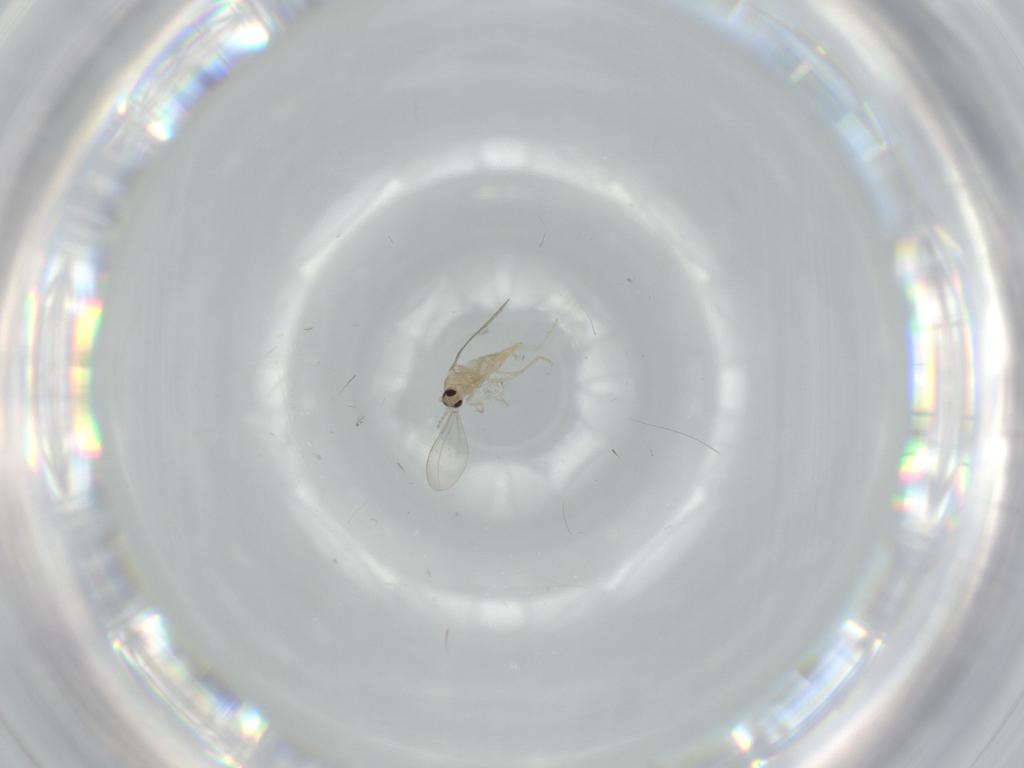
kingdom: Animalia
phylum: Arthropoda
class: Insecta
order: Diptera
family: Cecidomyiidae
